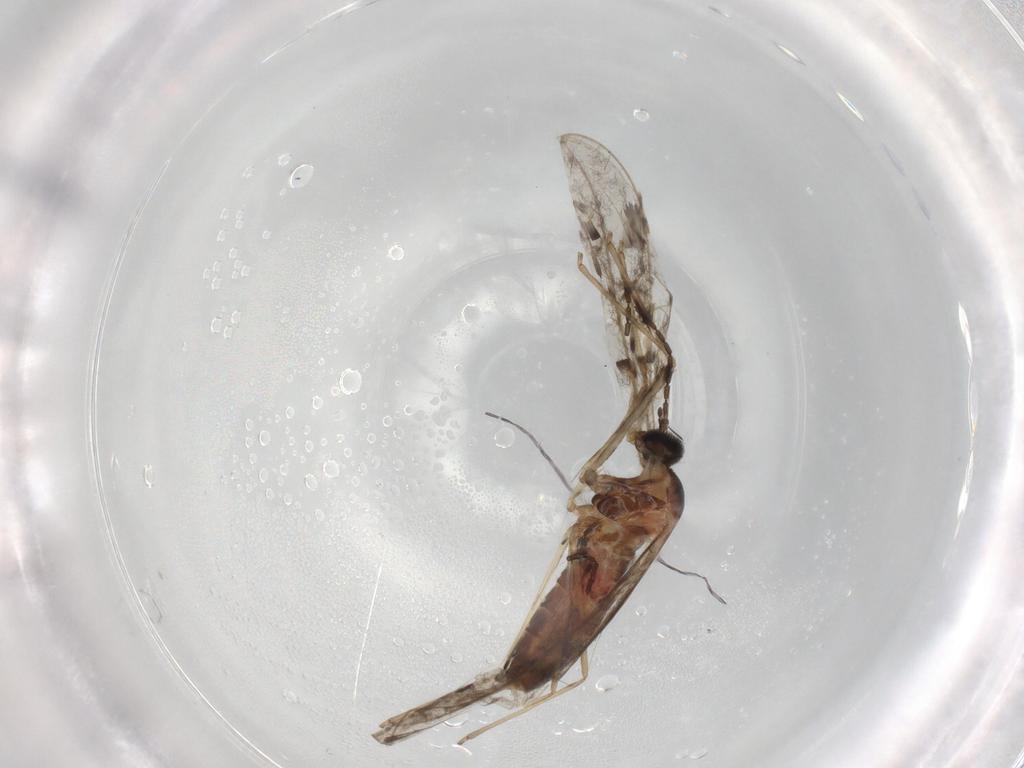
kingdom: Animalia
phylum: Arthropoda
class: Insecta
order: Diptera
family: Cecidomyiidae
